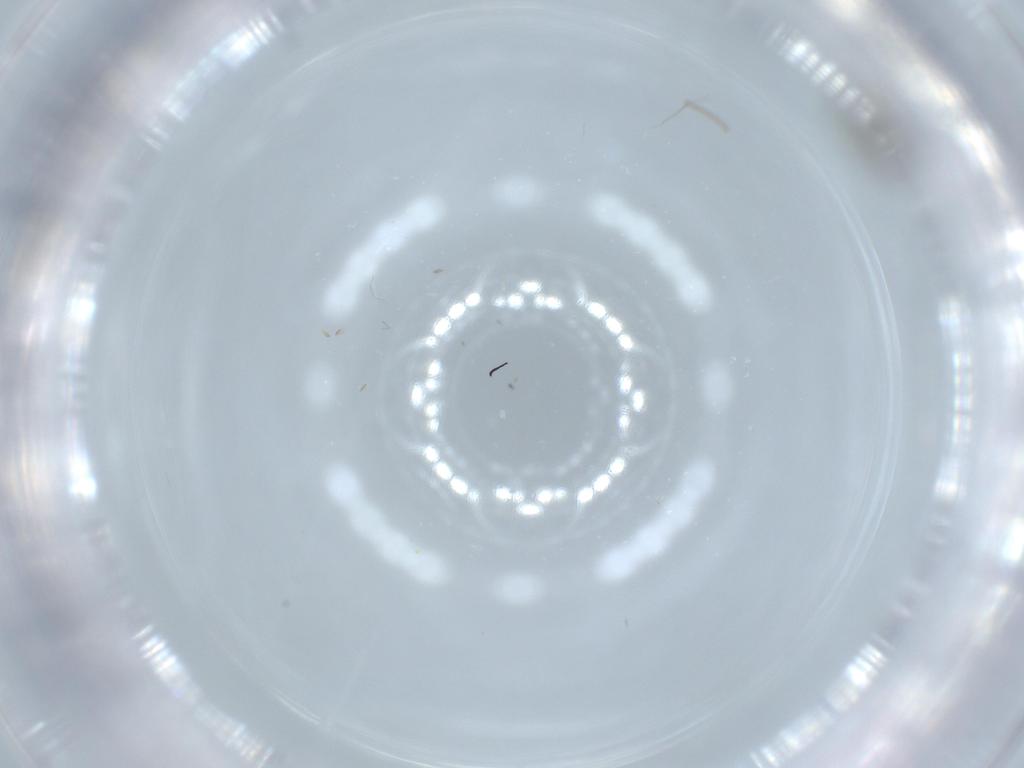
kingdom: Animalia
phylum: Arthropoda
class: Insecta
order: Diptera
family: Cecidomyiidae
